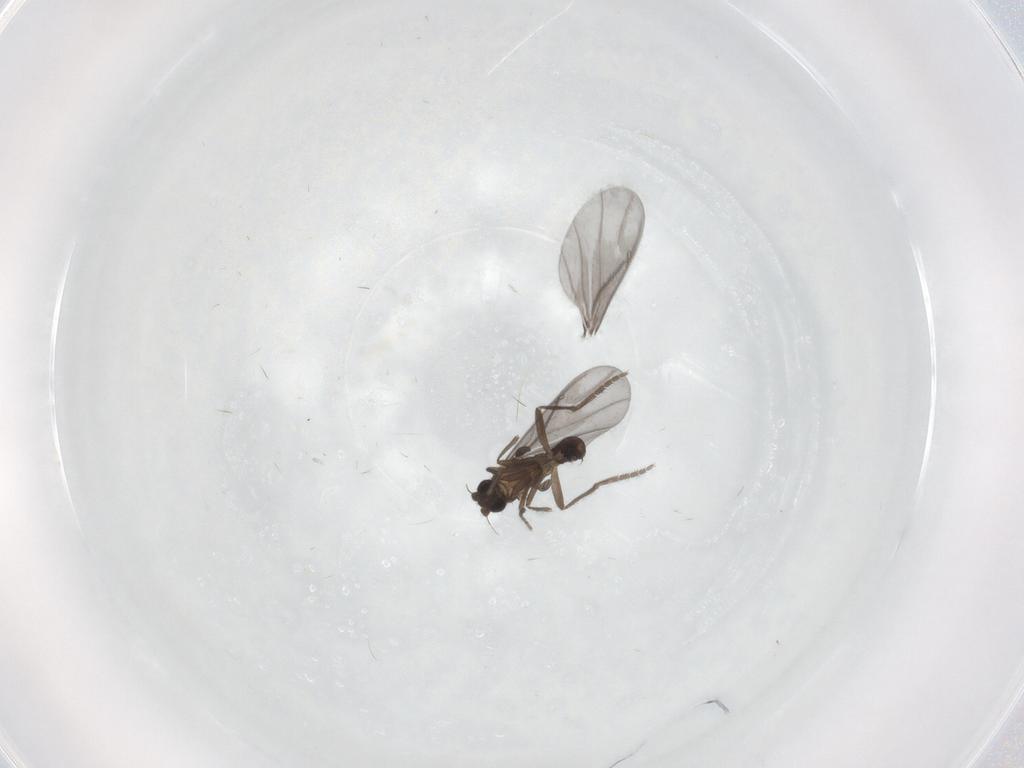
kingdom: Animalia
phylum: Arthropoda
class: Insecta
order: Diptera
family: Phoridae
